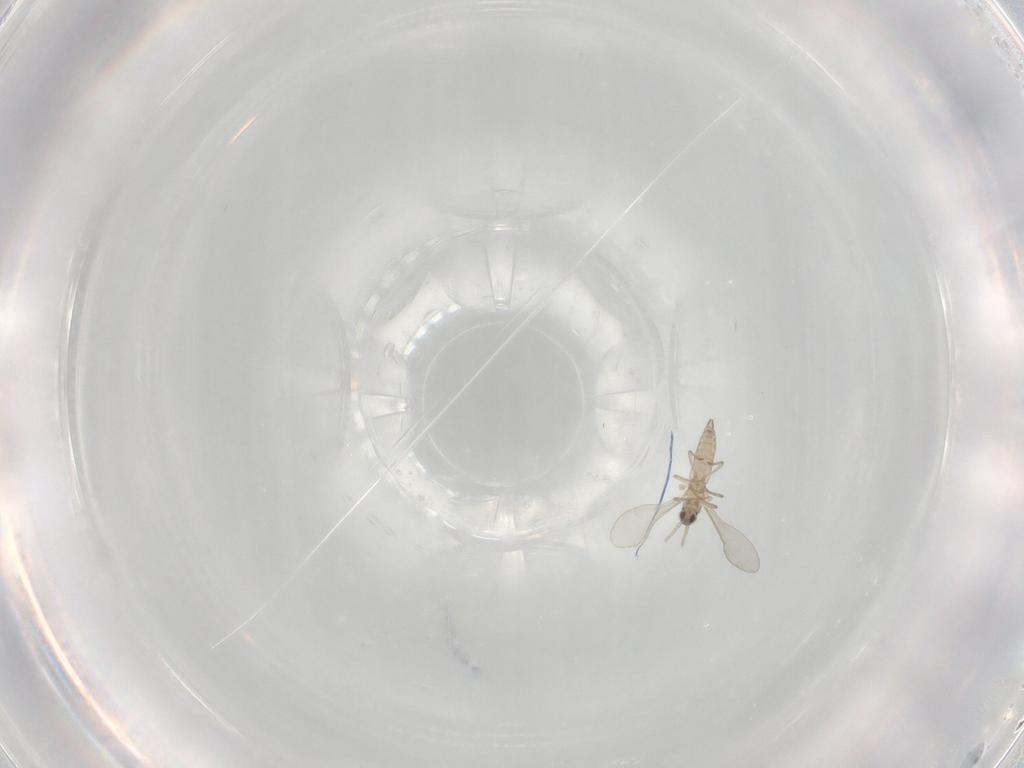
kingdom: Animalia
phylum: Arthropoda
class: Insecta
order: Diptera
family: Cecidomyiidae
